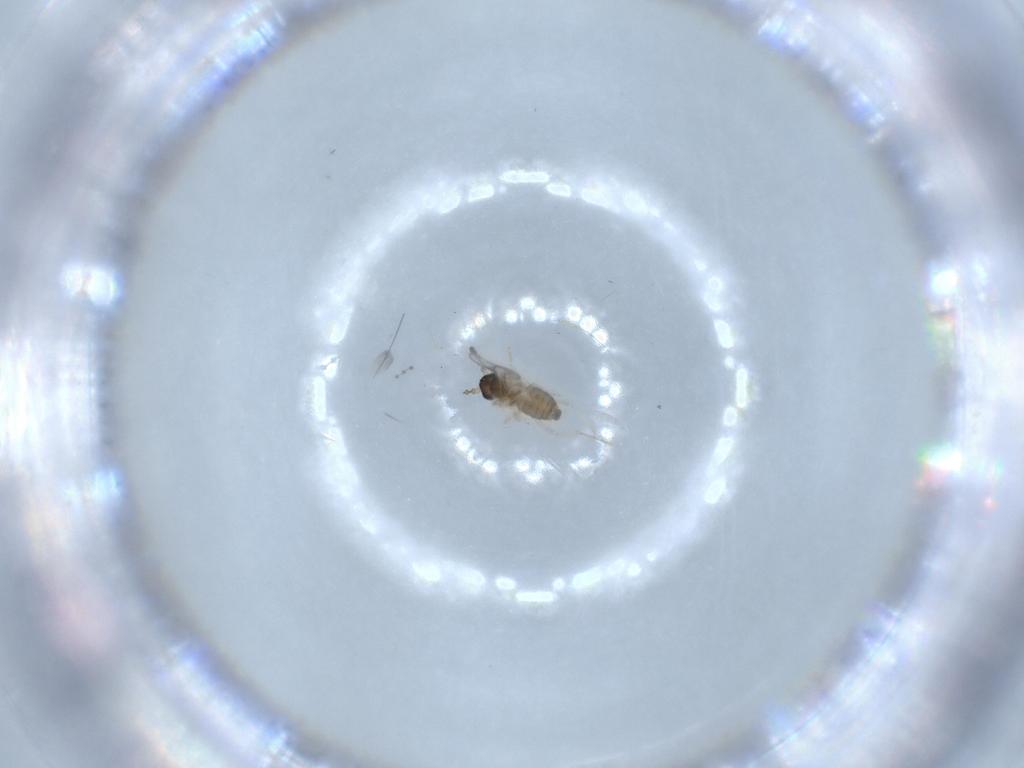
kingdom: Animalia
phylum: Arthropoda
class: Insecta
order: Diptera
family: Cecidomyiidae
